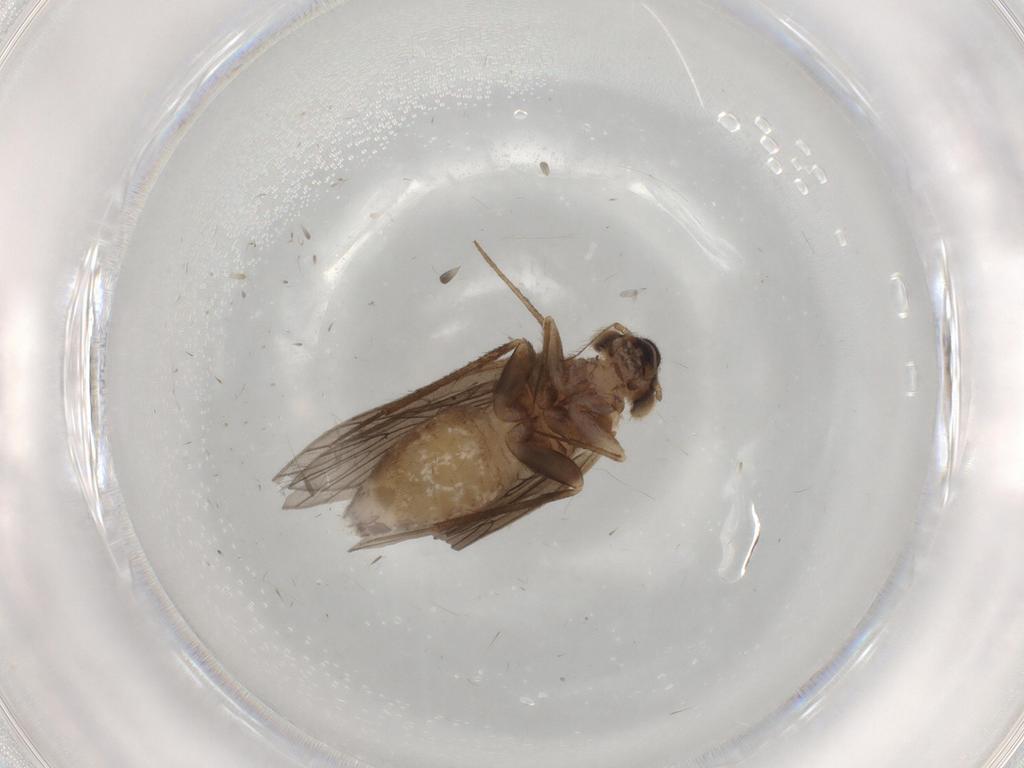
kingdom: Animalia
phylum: Arthropoda
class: Insecta
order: Psocodea
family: Lepidopsocidae
